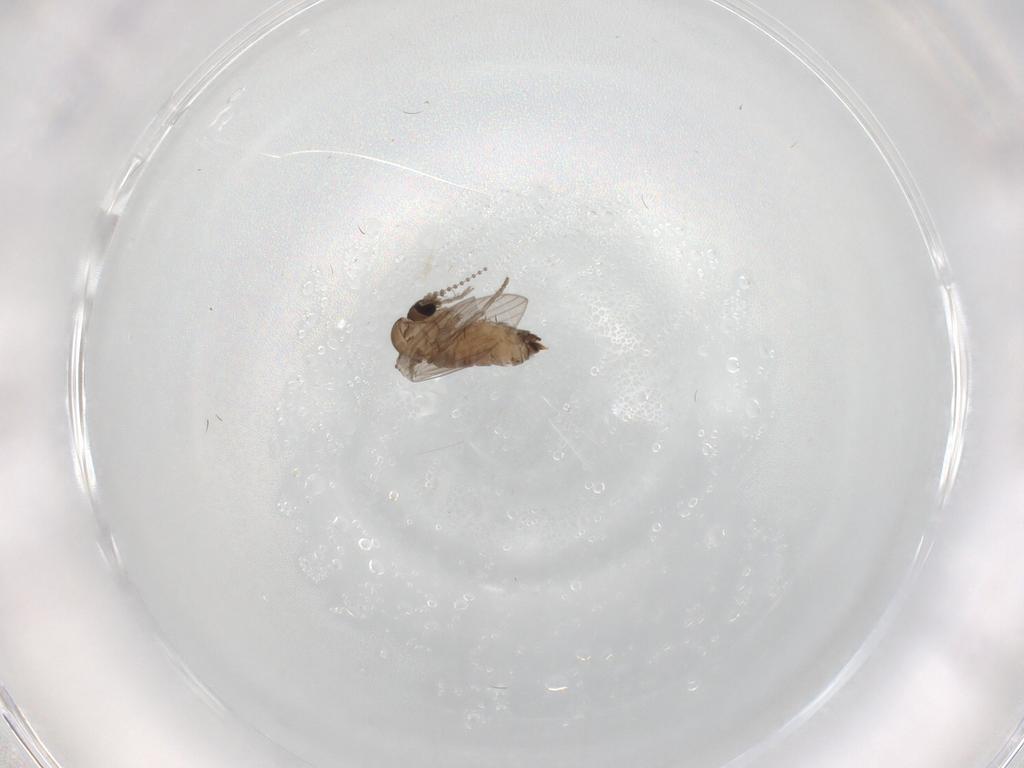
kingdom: Animalia
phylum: Arthropoda
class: Insecta
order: Diptera
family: Psychodidae
